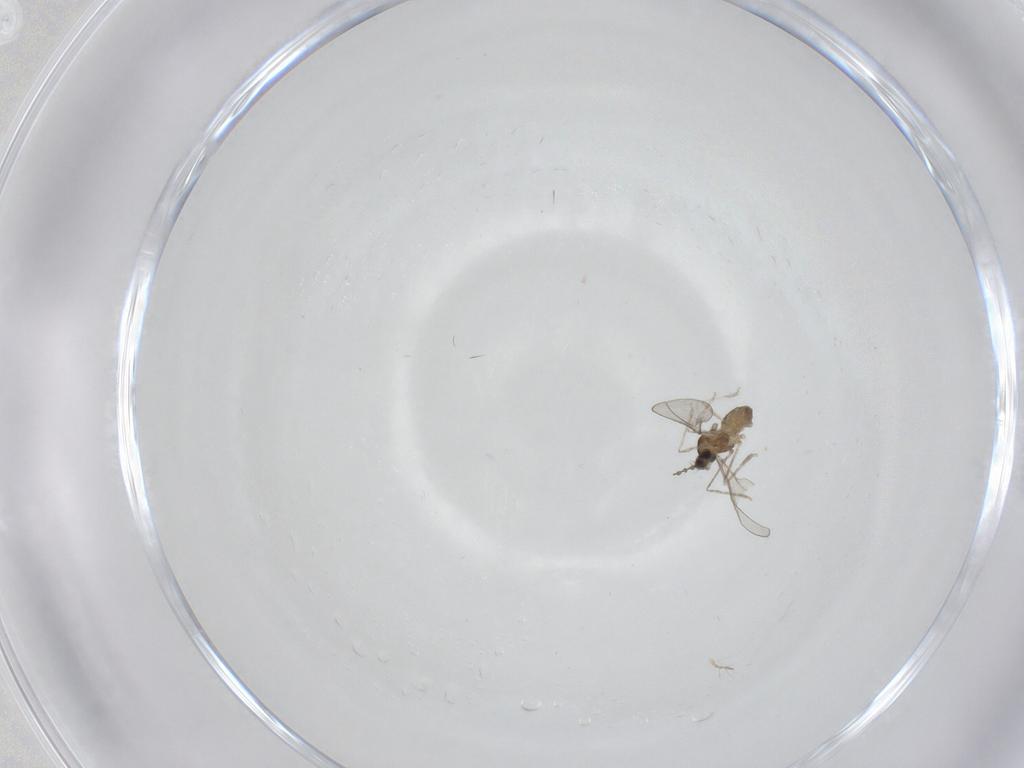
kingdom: Animalia
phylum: Arthropoda
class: Insecta
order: Diptera
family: Cecidomyiidae
